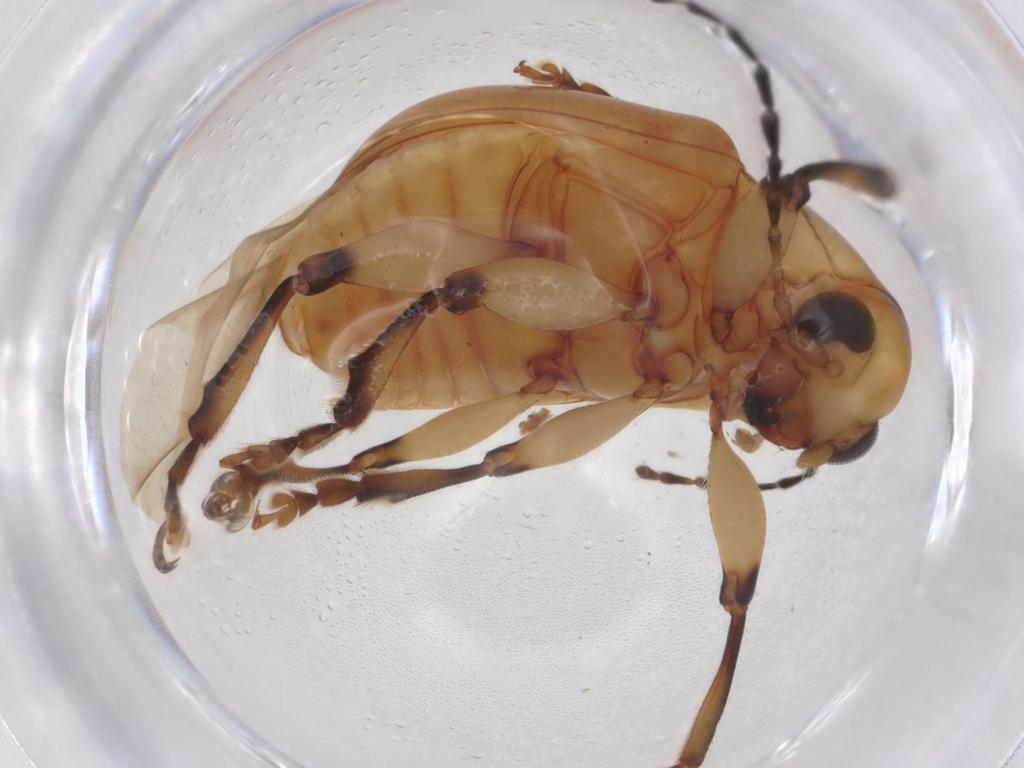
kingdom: Animalia
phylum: Arthropoda
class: Insecta
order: Coleoptera
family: Chrysomelidae
